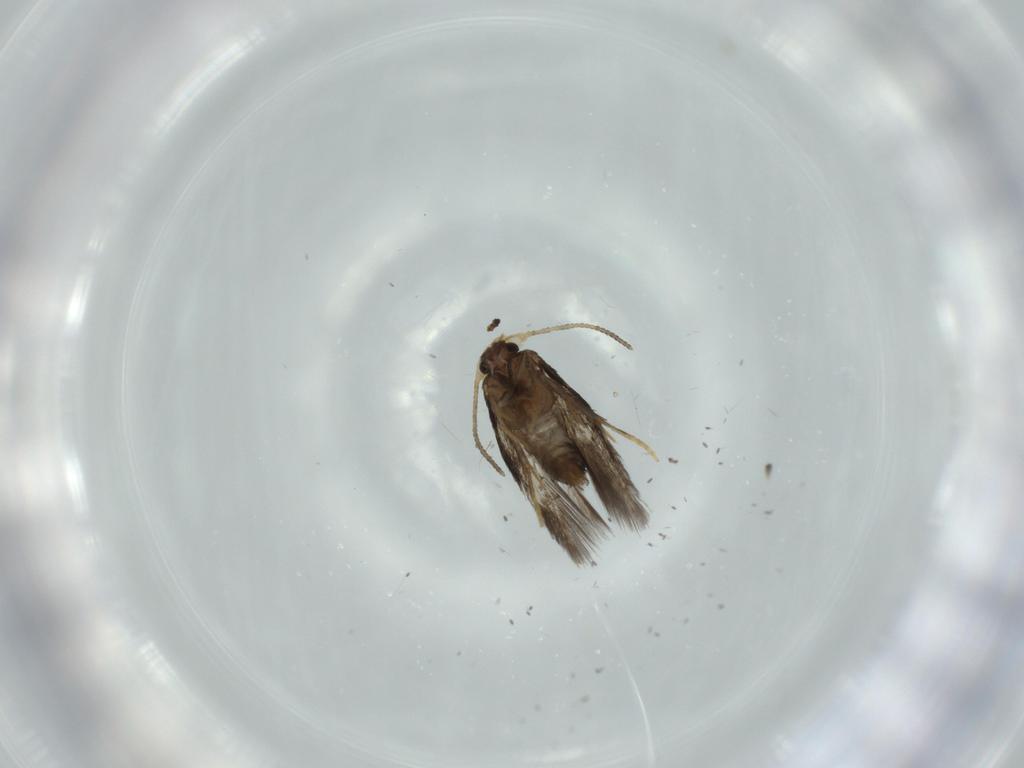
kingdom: Animalia
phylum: Arthropoda
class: Insecta
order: Lepidoptera
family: Nepticulidae
